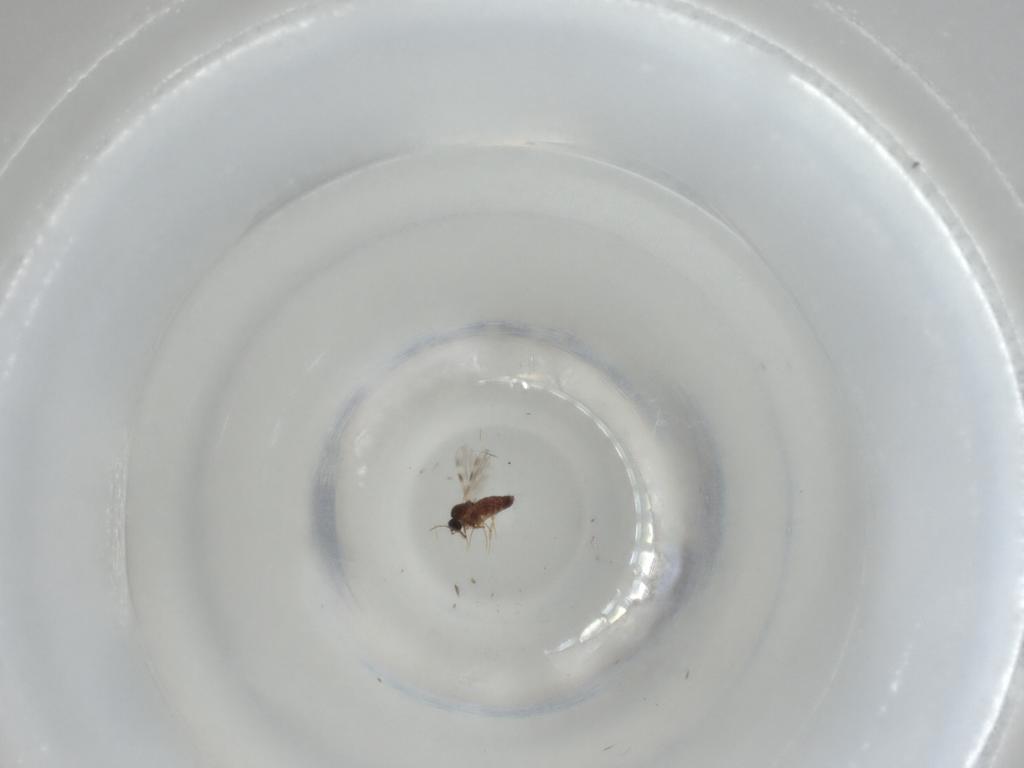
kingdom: Animalia
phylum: Arthropoda
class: Insecta
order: Diptera
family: Ceratopogonidae
